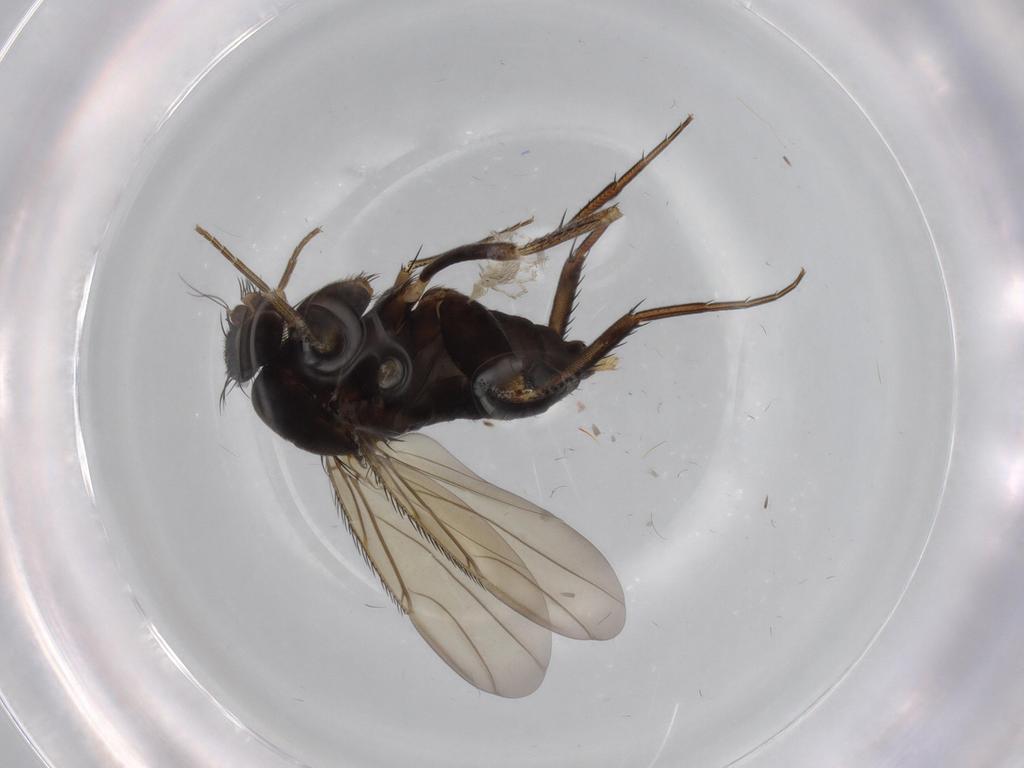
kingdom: Animalia
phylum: Arthropoda
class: Insecta
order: Diptera
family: Phoridae
